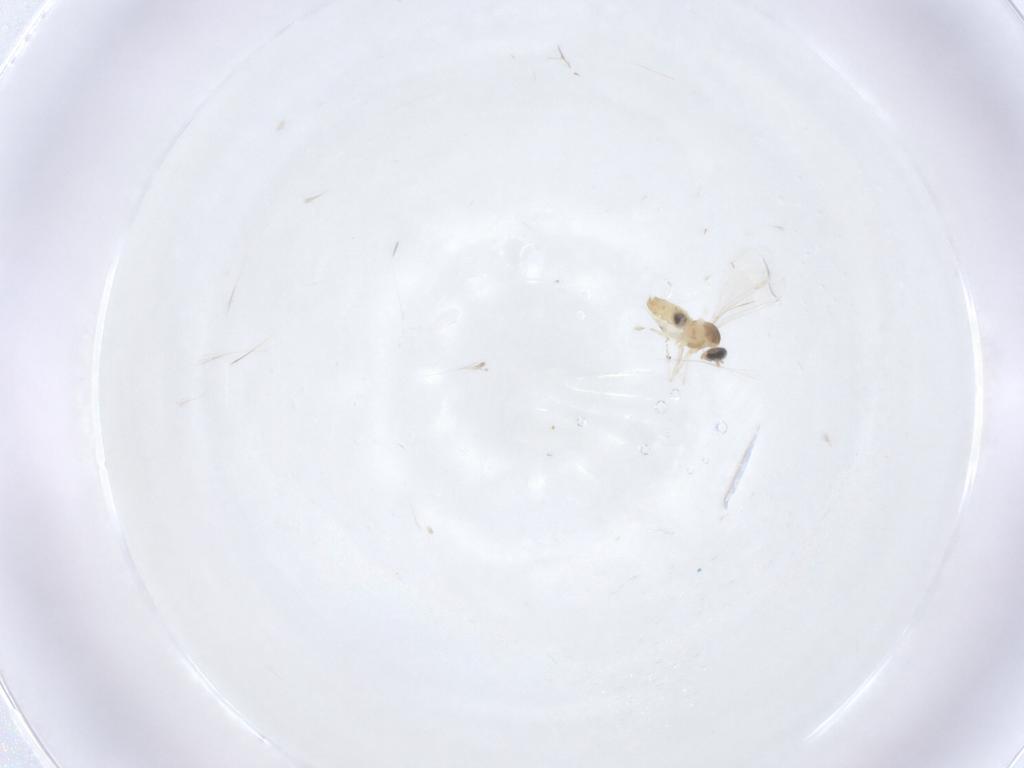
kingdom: Animalia
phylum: Arthropoda
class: Insecta
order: Diptera
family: Cecidomyiidae
